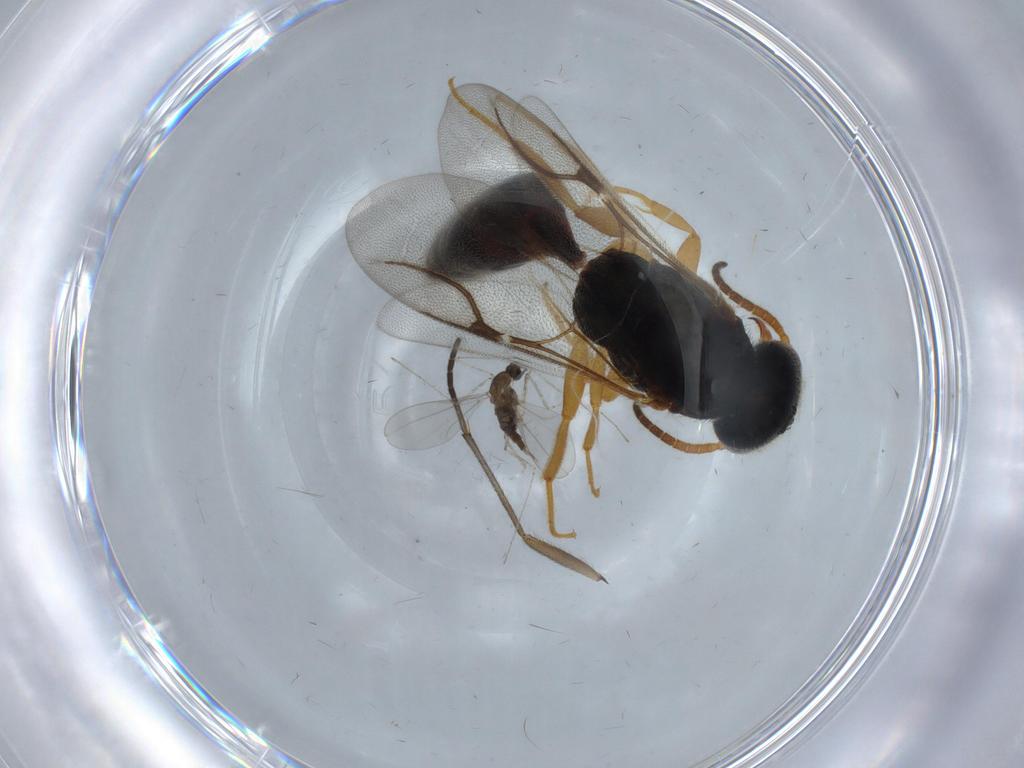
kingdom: Animalia
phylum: Arthropoda
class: Insecta
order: Hymenoptera
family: Bethylidae
